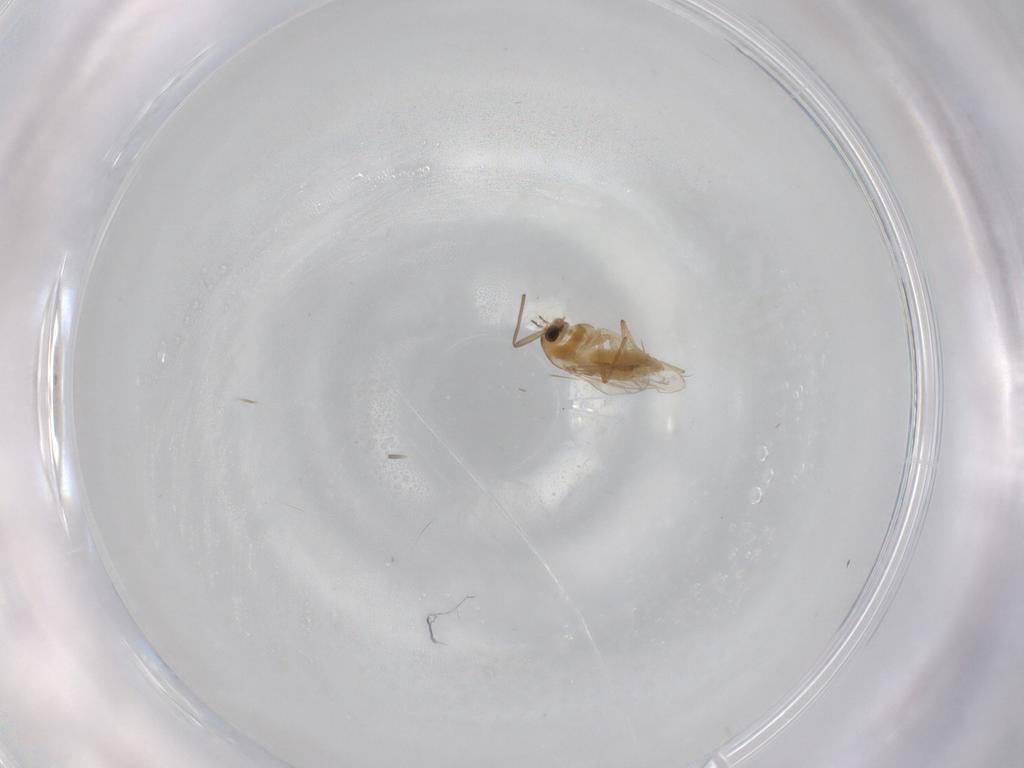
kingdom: Animalia
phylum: Arthropoda
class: Insecta
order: Diptera
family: Chironomidae
